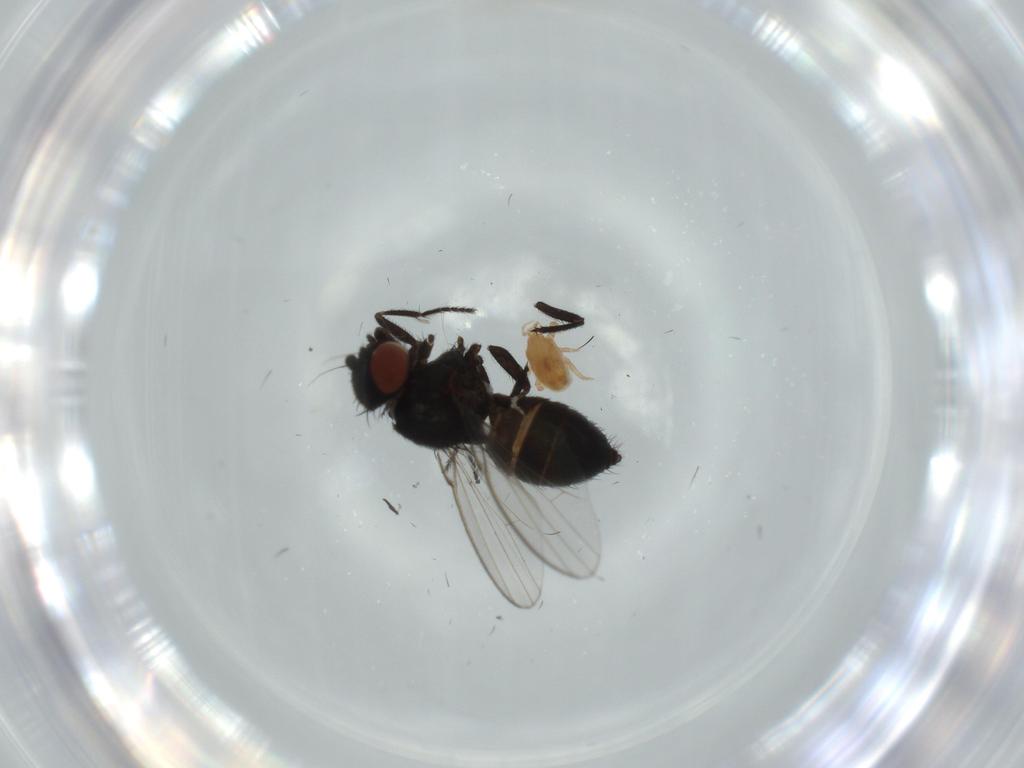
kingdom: Animalia
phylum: Arthropoda
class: Insecta
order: Diptera
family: Milichiidae
